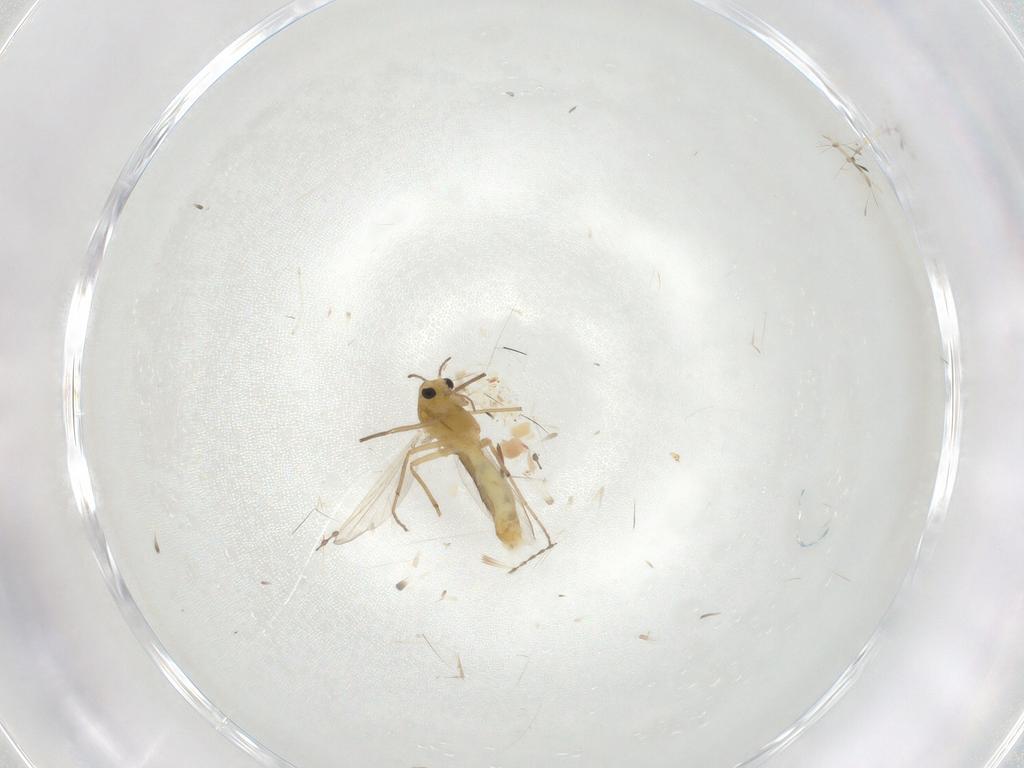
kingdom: Animalia
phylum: Arthropoda
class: Insecta
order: Diptera
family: Chironomidae
